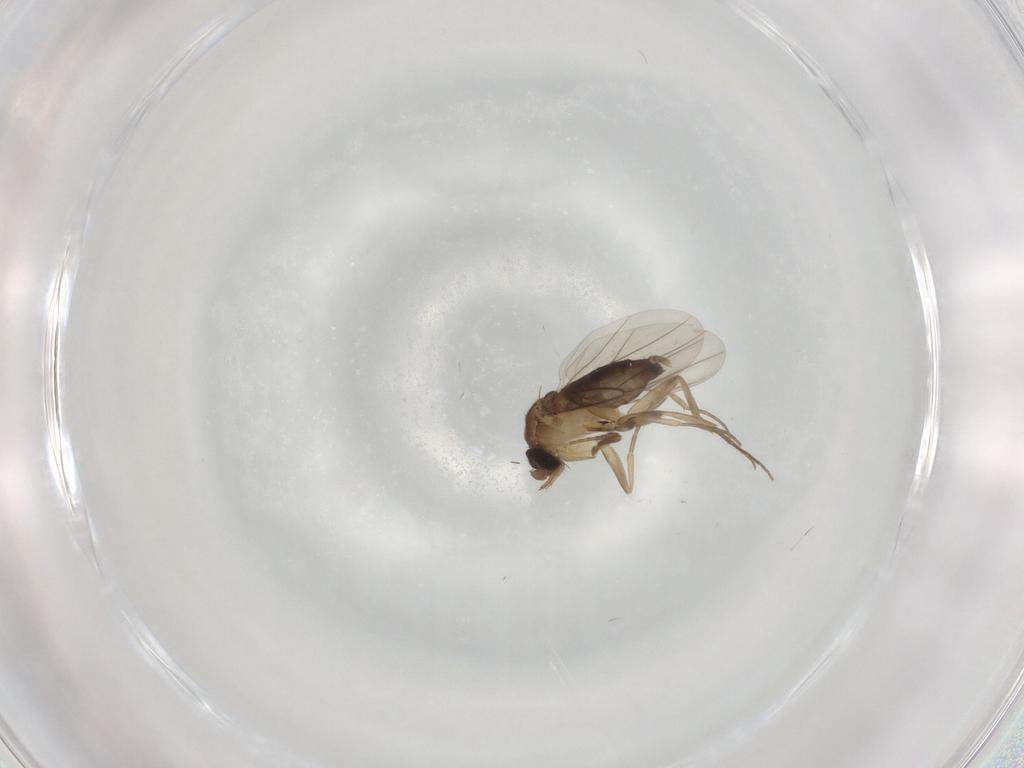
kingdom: Animalia
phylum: Arthropoda
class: Insecta
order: Diptera
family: Phoridae
